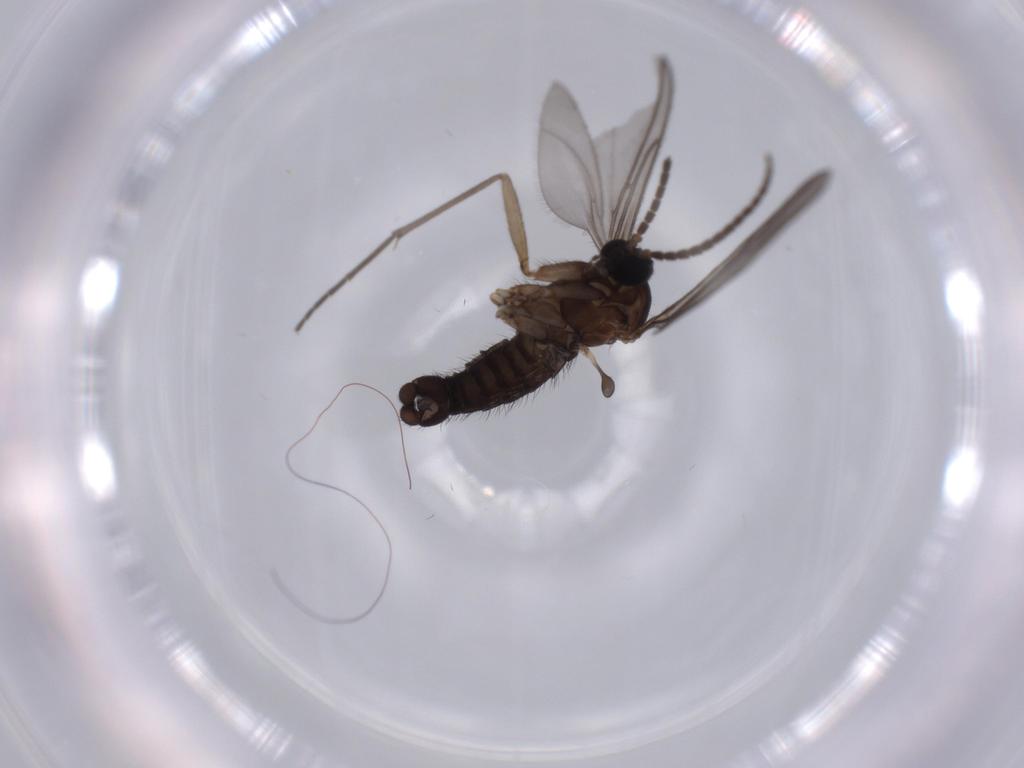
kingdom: Animalia
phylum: Arthropoda
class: Insecta
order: Diptera
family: Sciaridae
